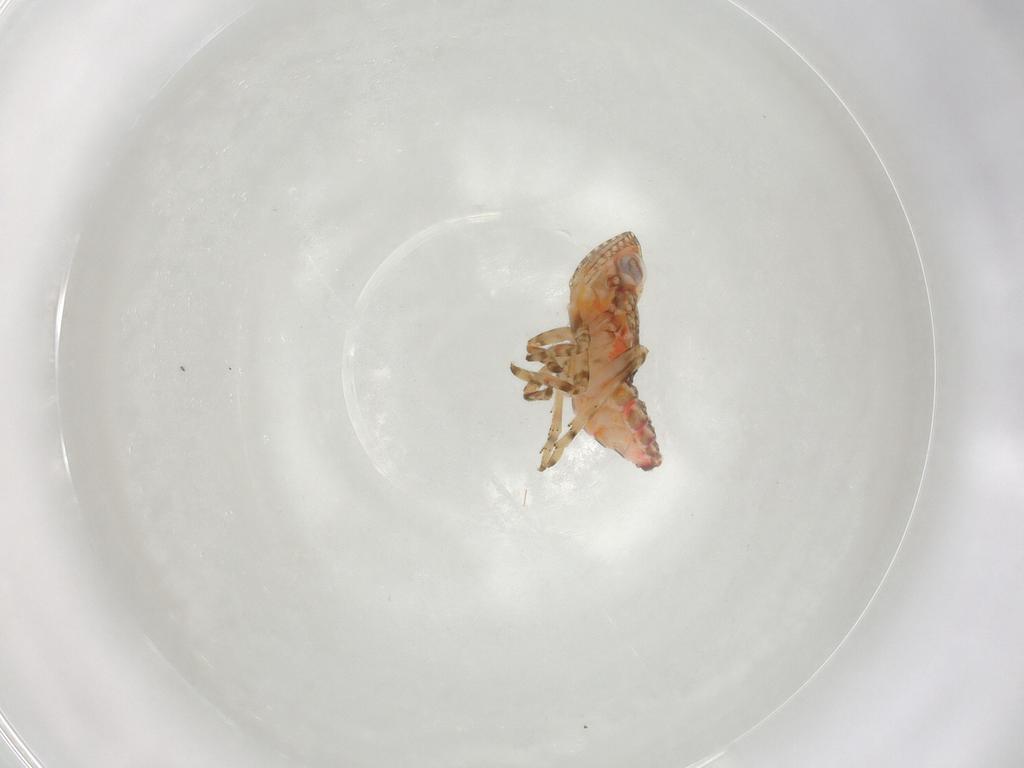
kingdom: Animalia
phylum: Arthropoda
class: Insecta
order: Hemiptera
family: Tropiduchidae
